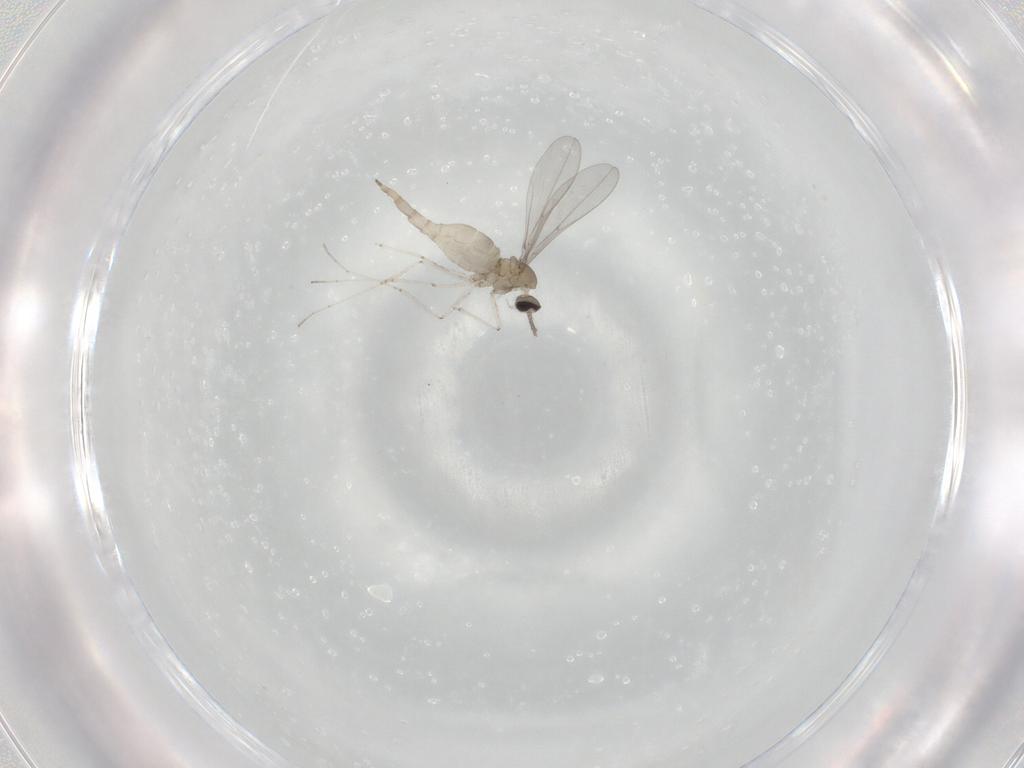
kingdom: Animalia
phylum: Arthropoda
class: Insecta
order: Diptera
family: Cecidomyiidae
